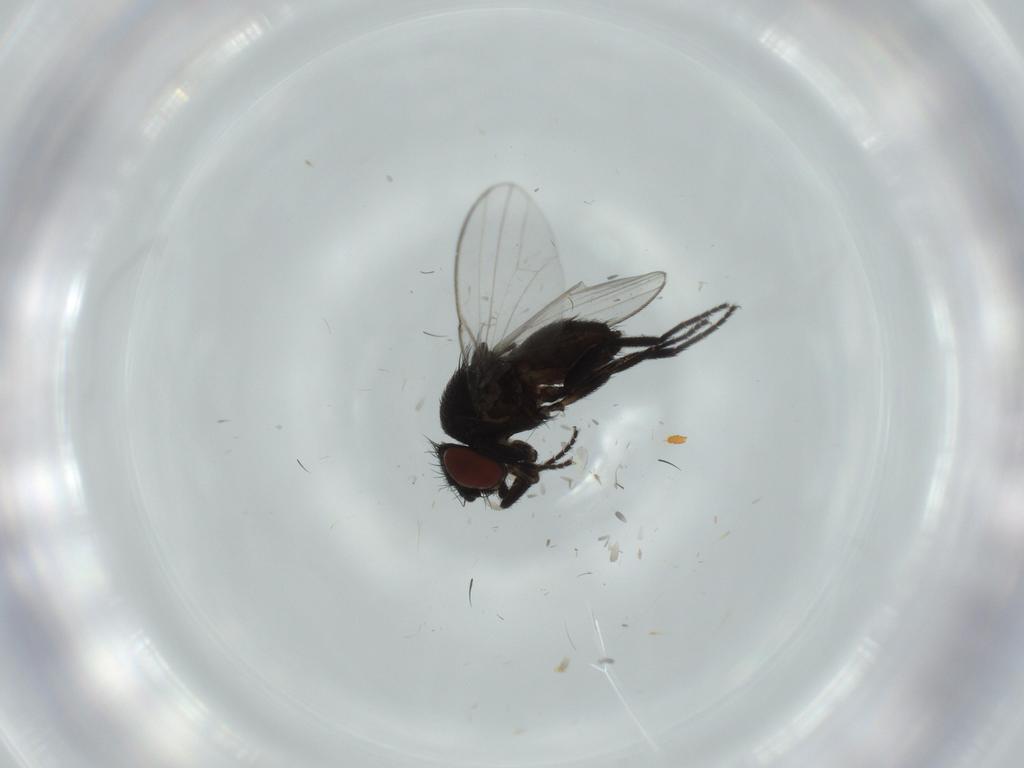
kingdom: Animalia
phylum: Arthropoda
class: Insecta
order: Diptera
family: Milichiidae
